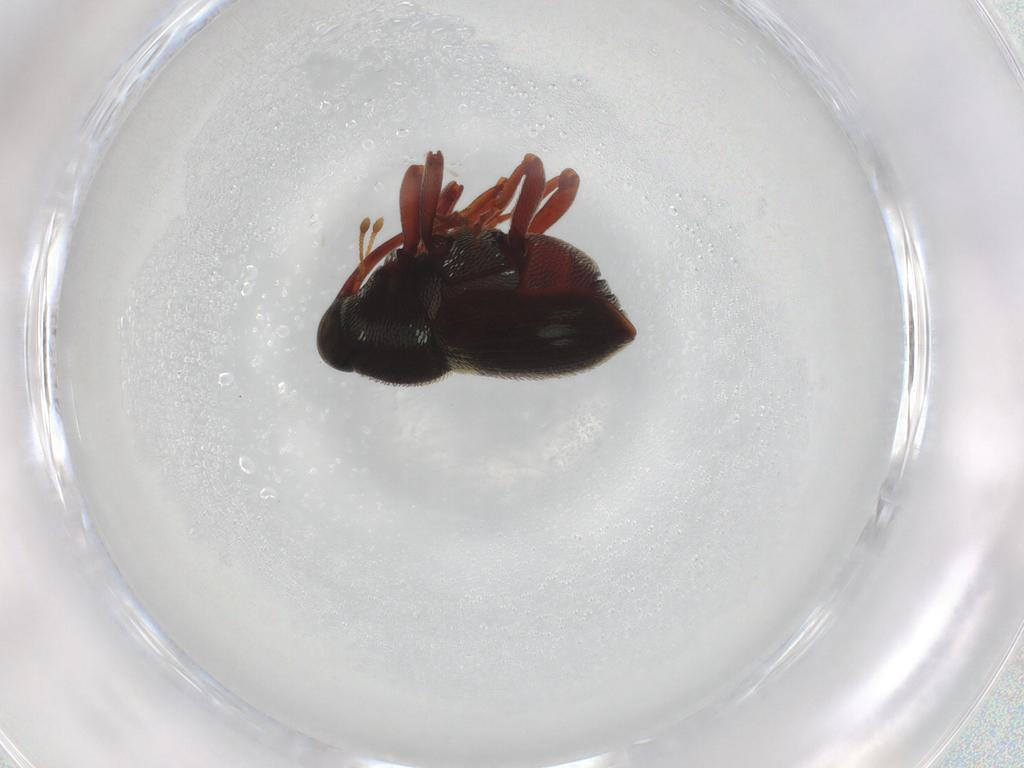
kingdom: Animalia
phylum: Arthropoda
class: Insecta
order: Coleoptera
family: Curculionidae
